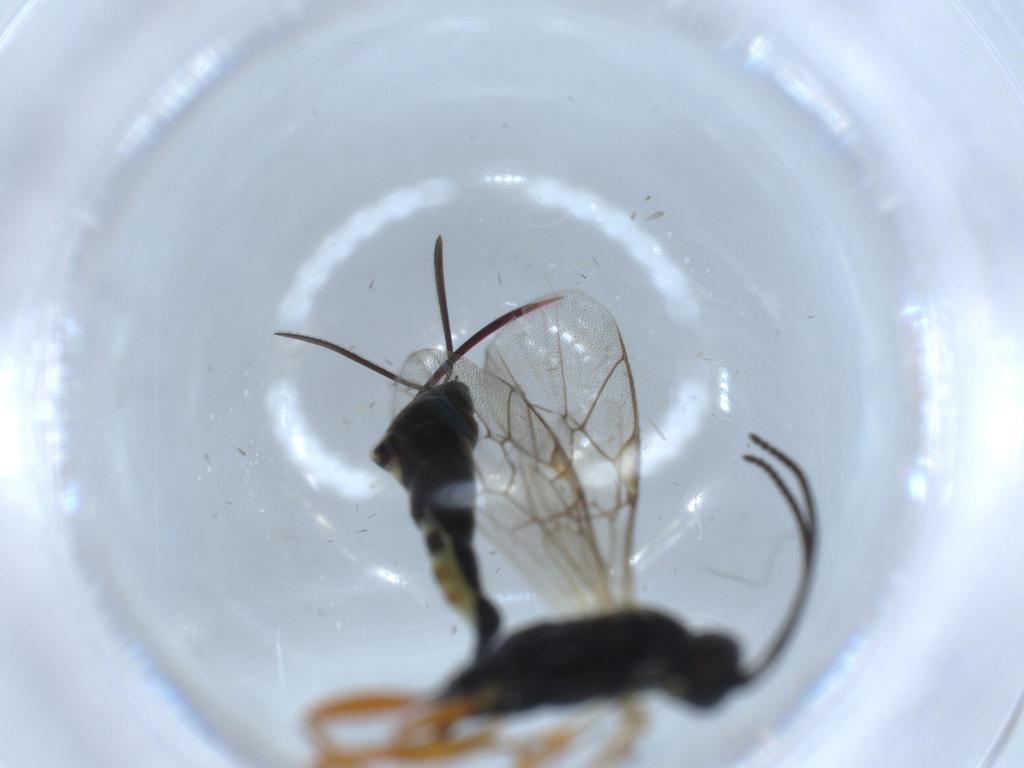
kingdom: Animalia
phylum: Arthropoda
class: Insecta
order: Hymenoptera
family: Ichneumonidae
